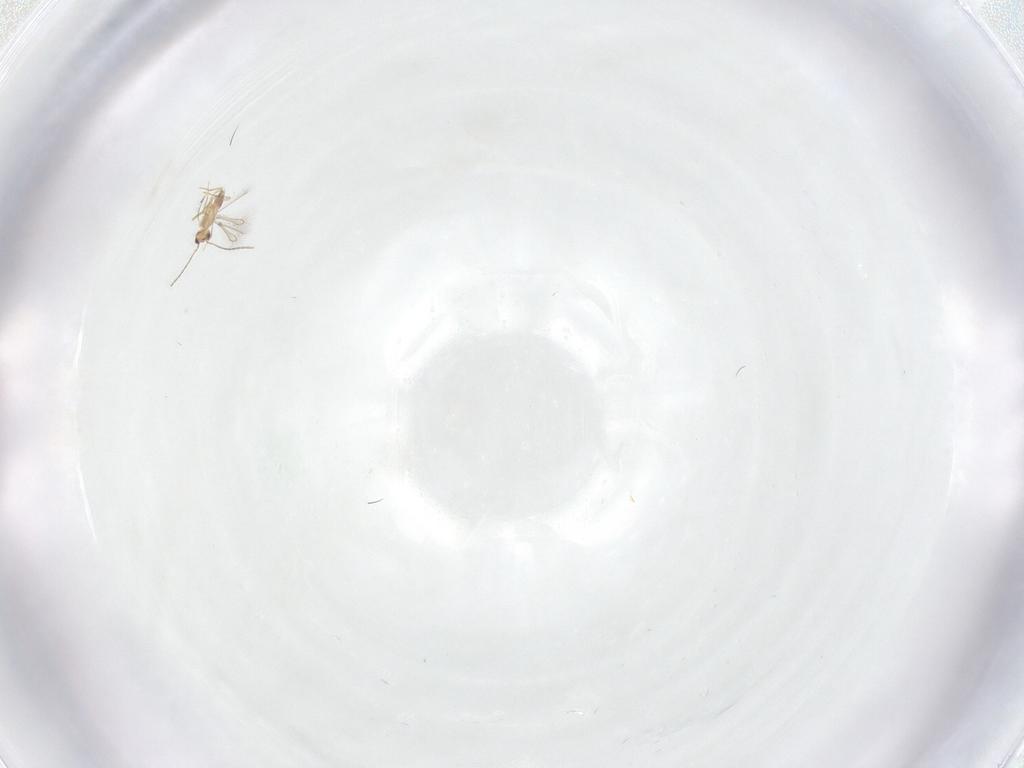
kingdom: Animalia
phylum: Arthropoda
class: Insecta
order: Hymenoptera
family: Mymaridae
